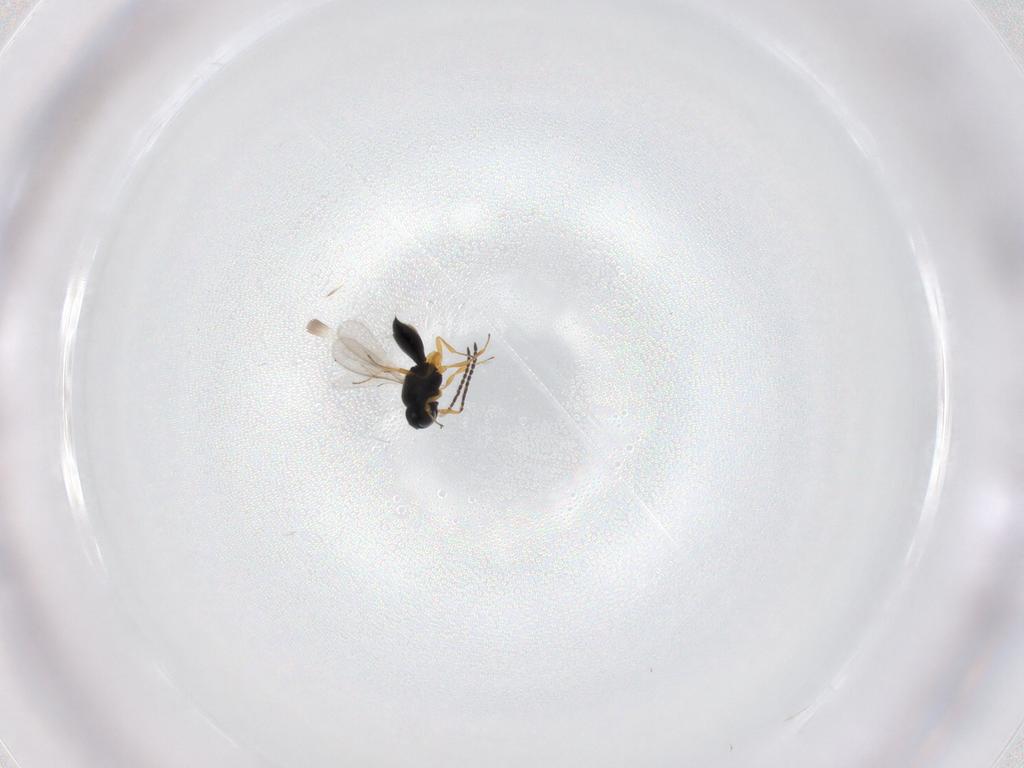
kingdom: Animalia
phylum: Arthropoda
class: Insecta
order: Hymenoptera
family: Scelionidae
